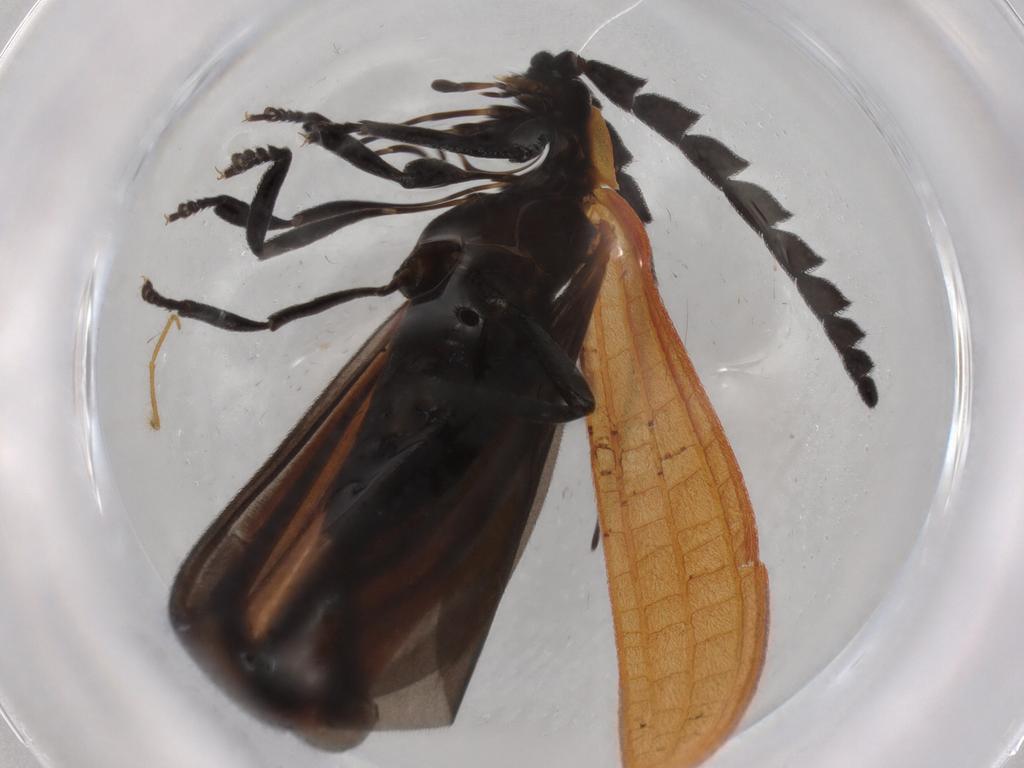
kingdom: Animalia
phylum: Arthropoda
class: Insecta
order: Coleoptera
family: Lycidae
